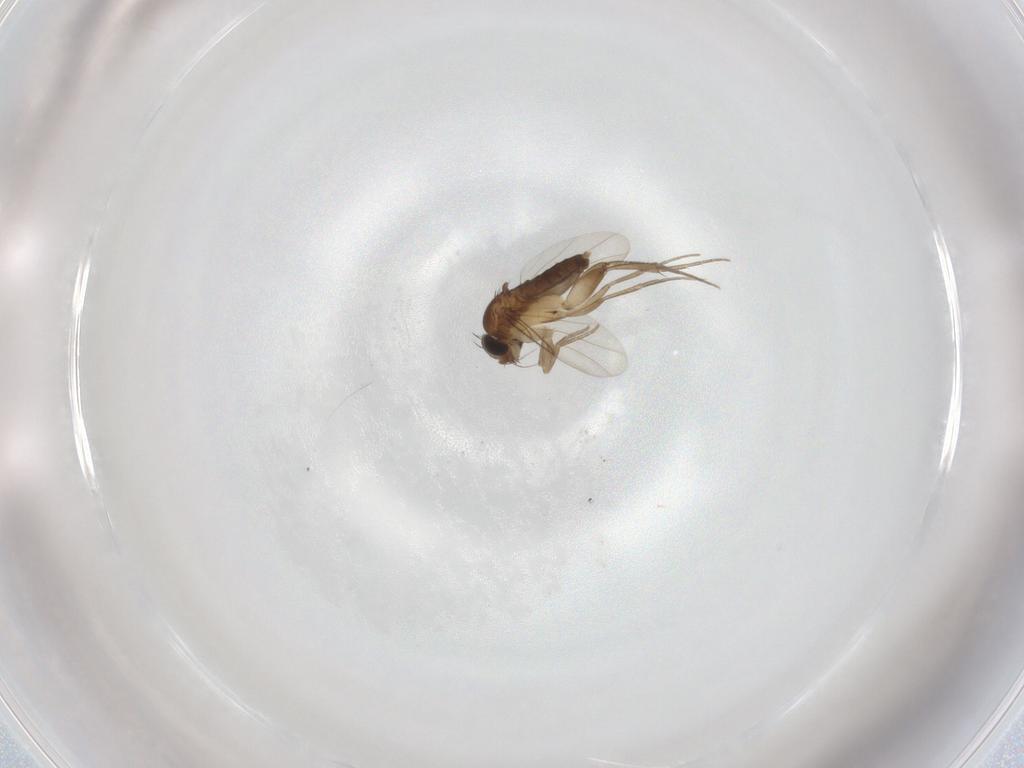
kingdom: Animalia
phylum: Arthropoda
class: Insecta
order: Diptera
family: Phoridae
